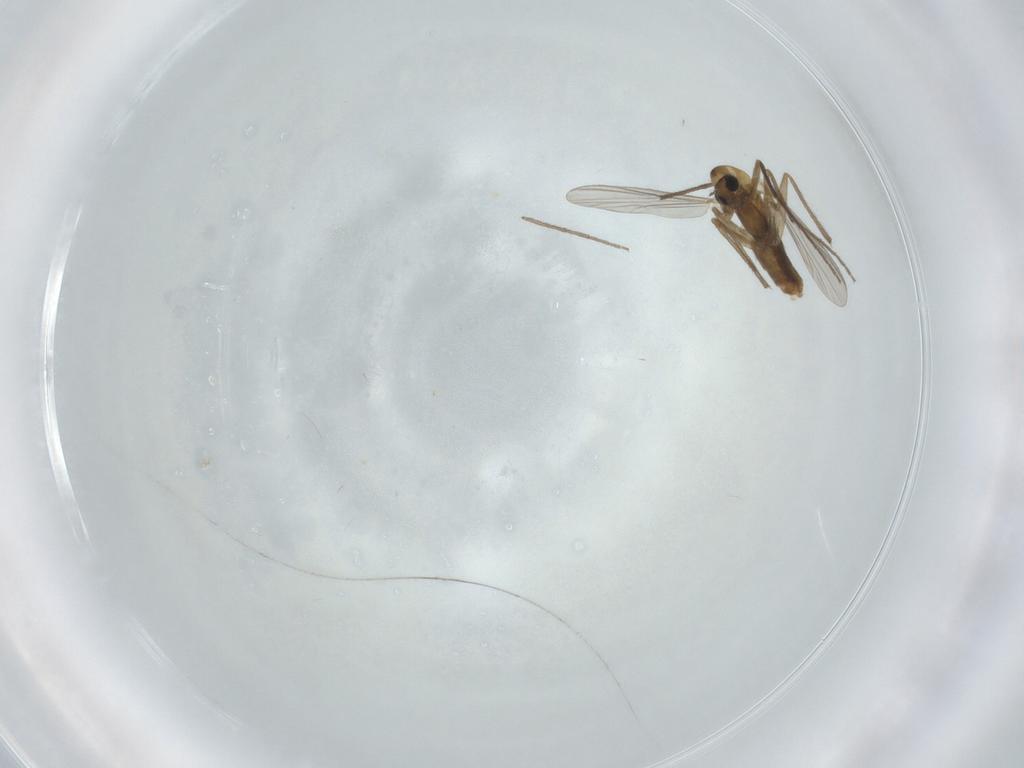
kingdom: Animalia
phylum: Arthropoda
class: Insecta
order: Diptera
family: Chironomidae
